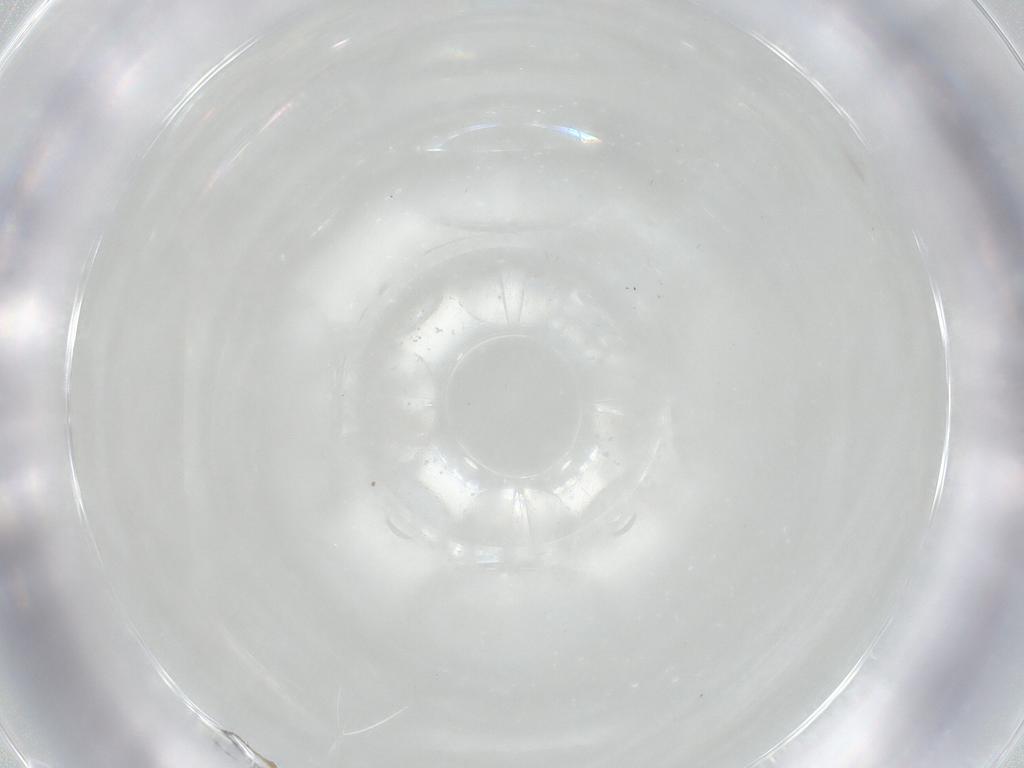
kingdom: Animalia
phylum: Arthropoda
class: Insecta
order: Diptera
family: Sciaridae
